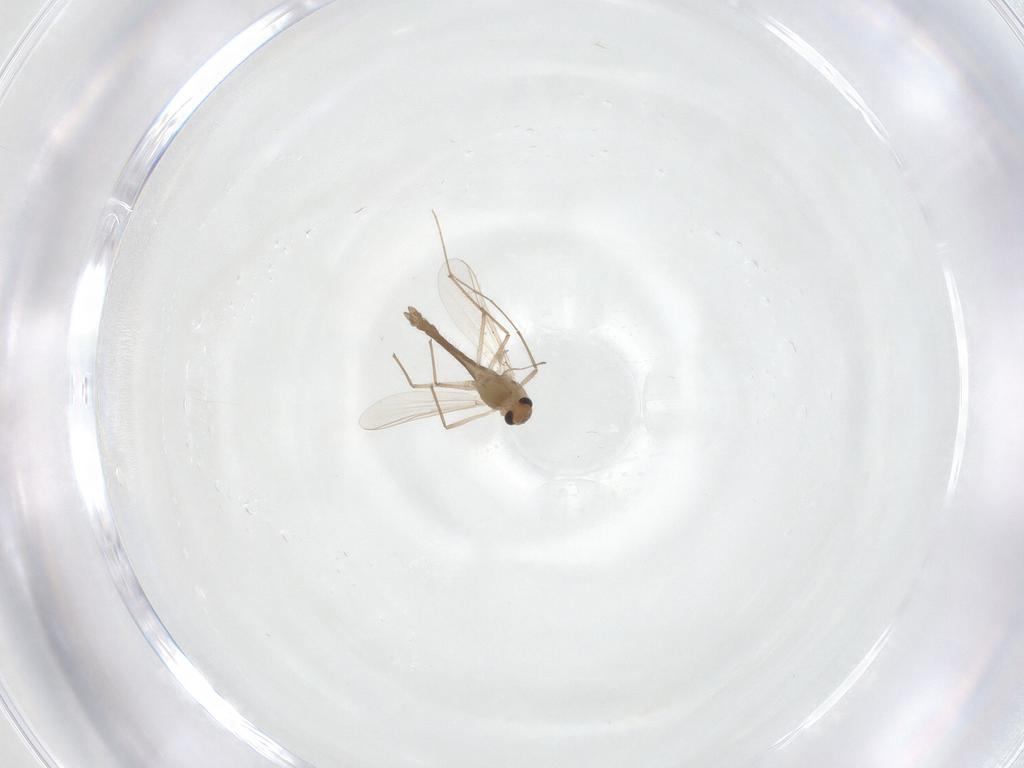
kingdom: Animalia
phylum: Arthropoda
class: Insecta
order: Diptera
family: Chironomidae
